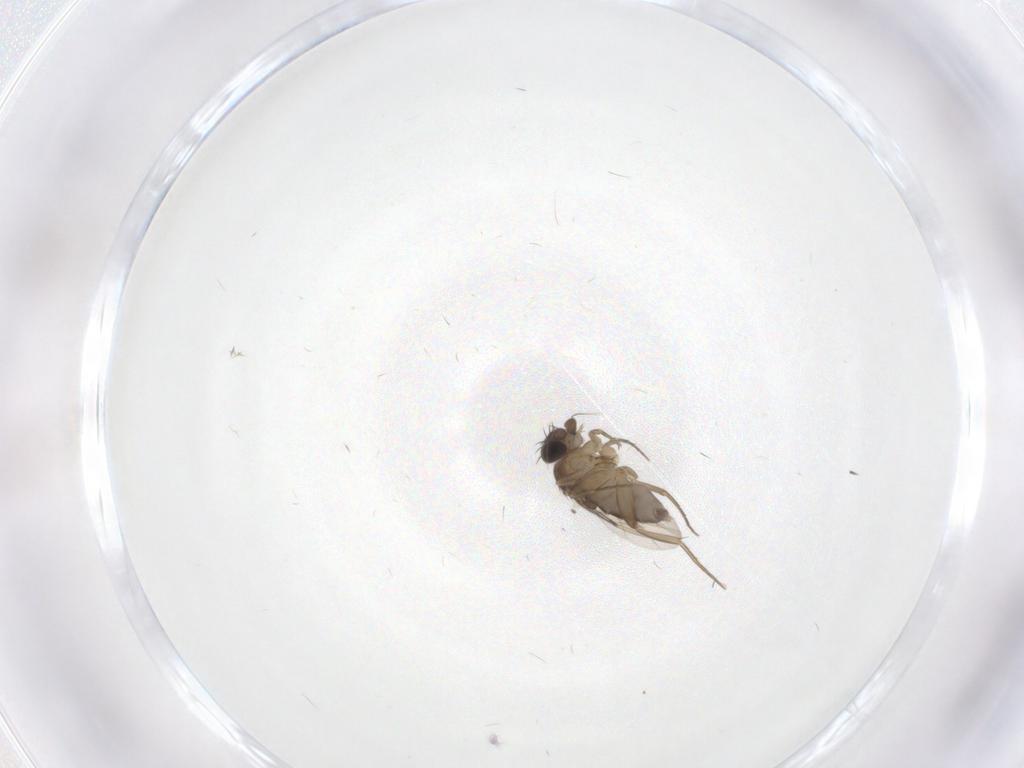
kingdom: Animalia
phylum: Arthropoda
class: Insecta
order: Diptera
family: Phoridae
